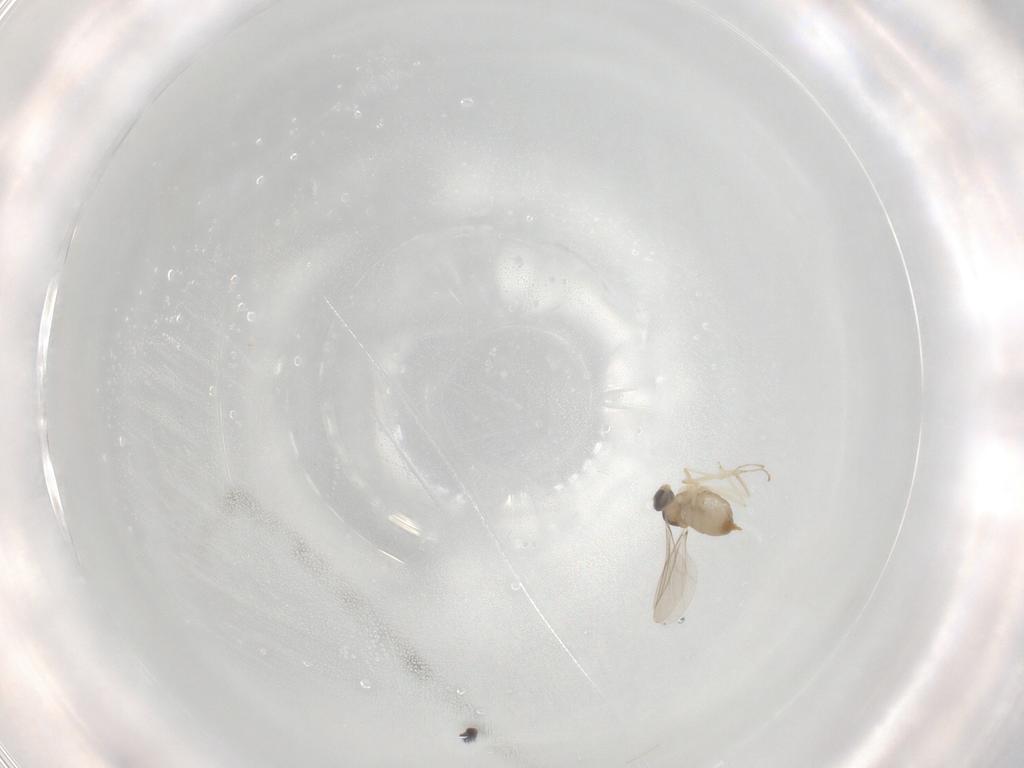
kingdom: Animalia
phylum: Arthropoda
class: Insecta
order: Diptera
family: Cecidomyiidae
